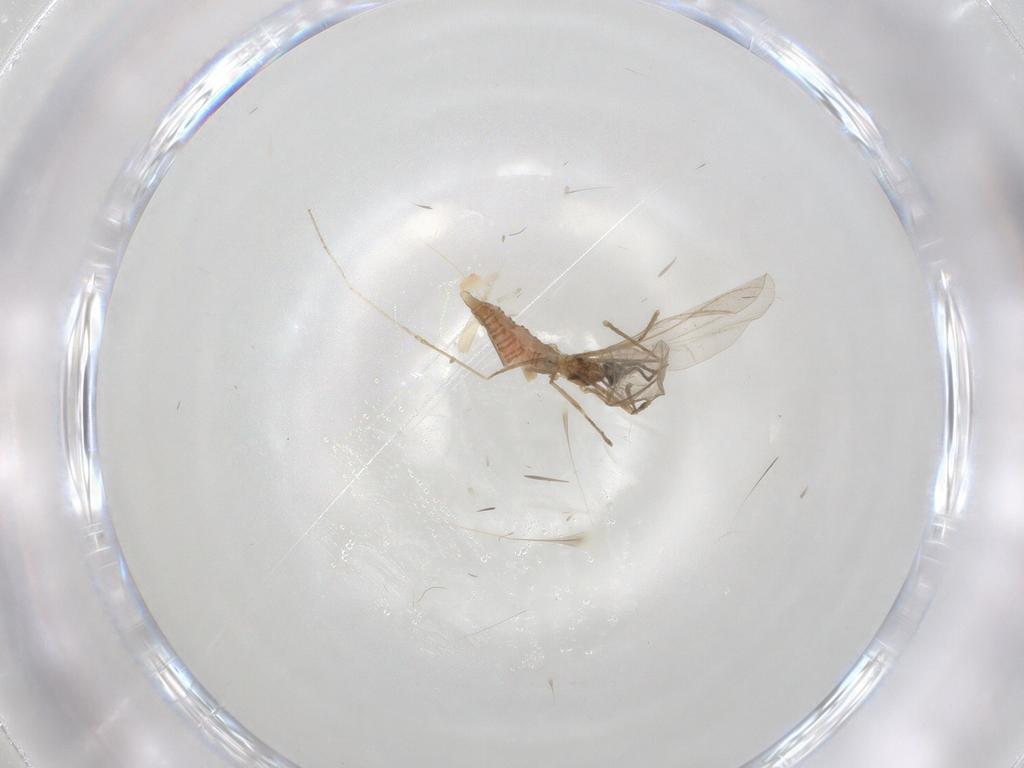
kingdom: Animalia
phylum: Arthropoda
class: Insecta
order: Diptera
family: Cecidomyiidae
